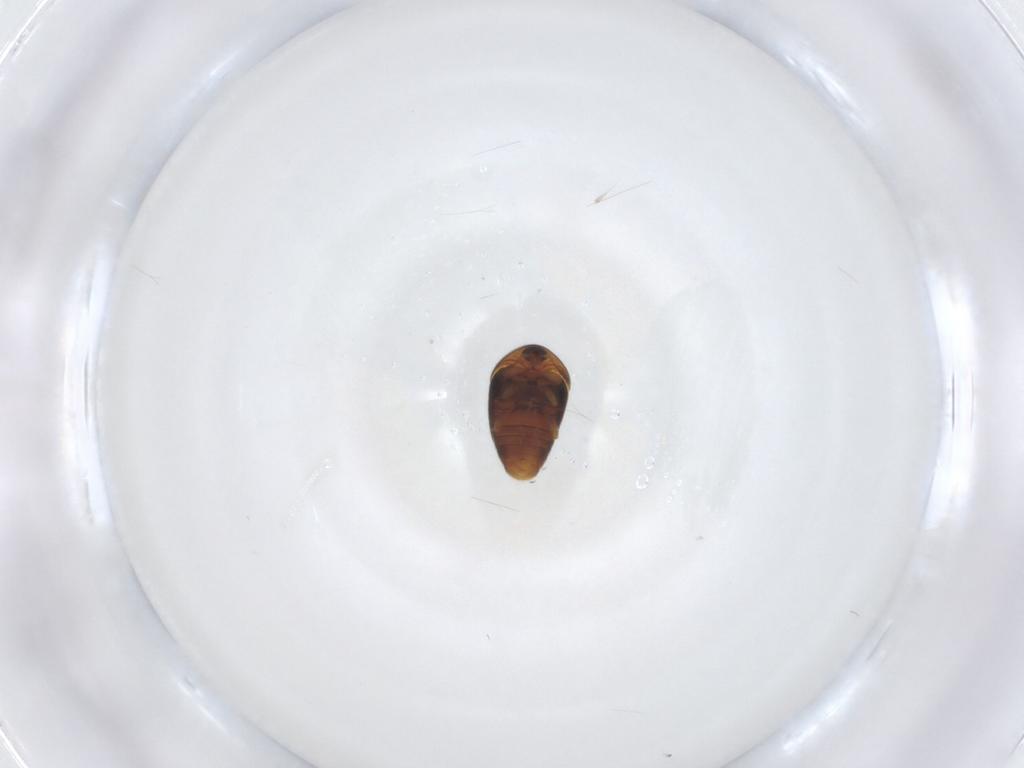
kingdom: Animalia
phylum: Arthropoda
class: Insecta
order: Coleoptera
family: Corylophidae
